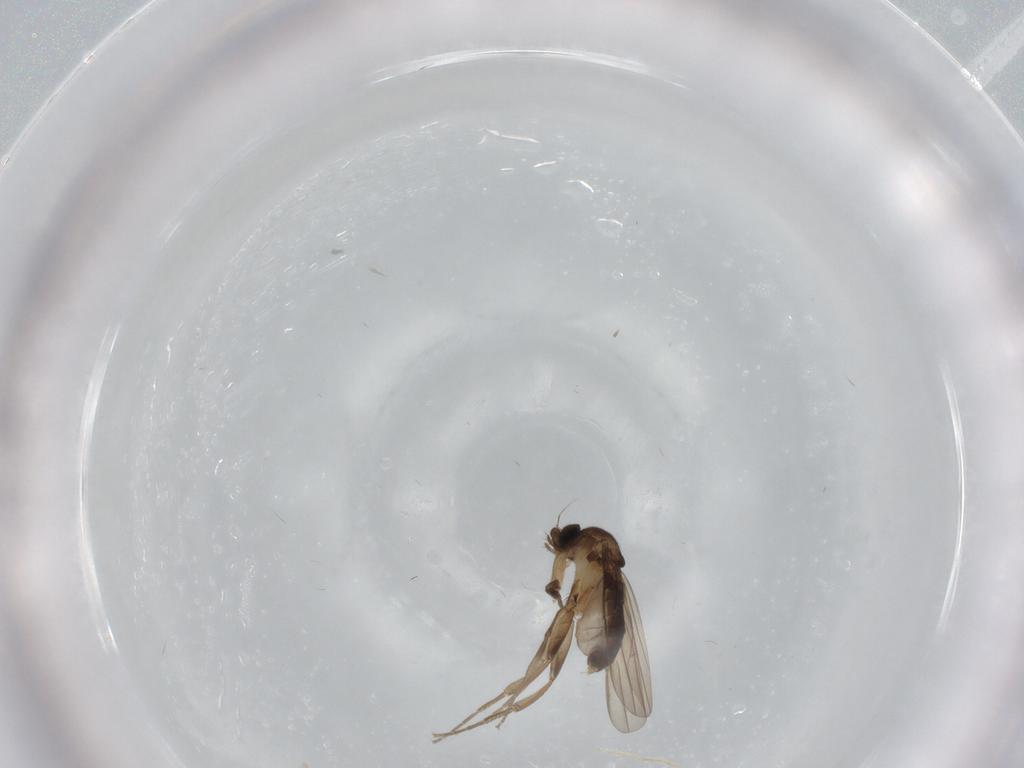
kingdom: Animalia
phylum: Arthropoda
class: Insecta
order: Diptera
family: Phoridae
